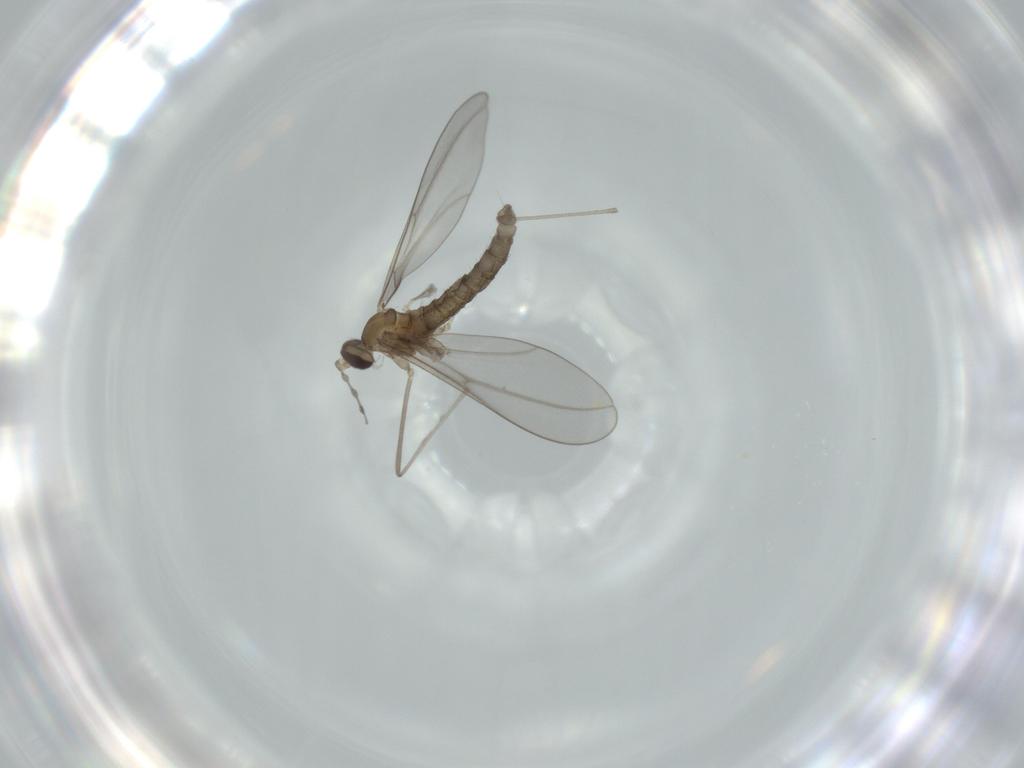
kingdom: Animalia
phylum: Arthropoda
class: Insecta
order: Diptera
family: Cecidomyiidae
